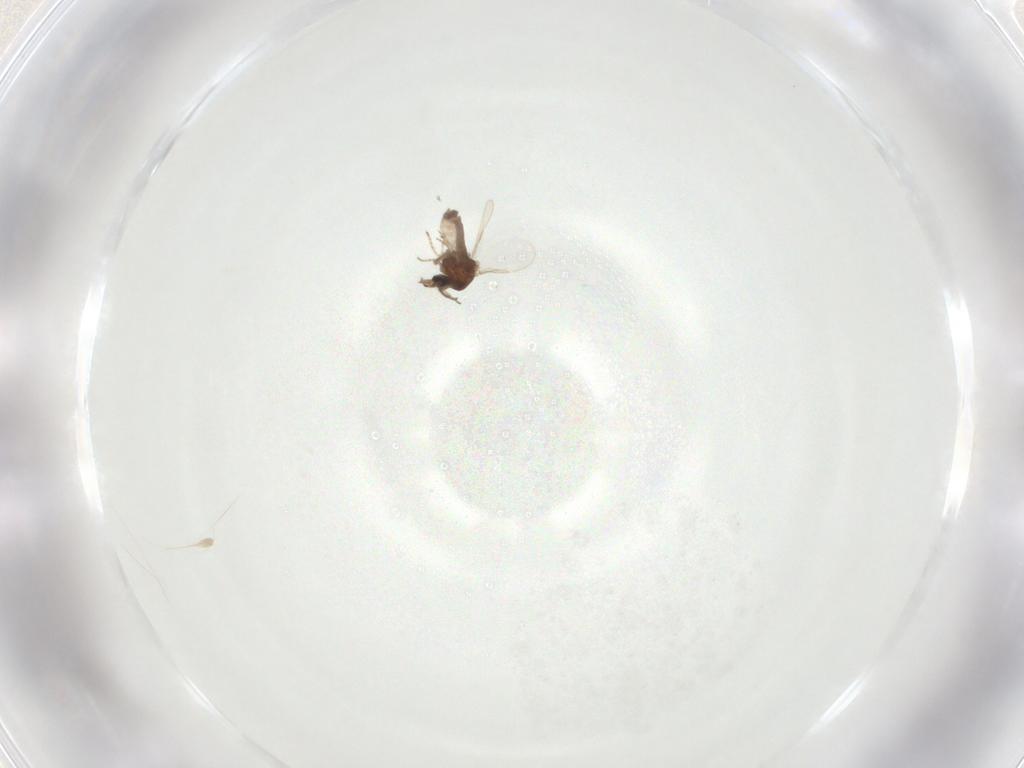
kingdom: Animalia
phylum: Arthropoda
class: Insecta
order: Diptera
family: Ceratopogonidae
